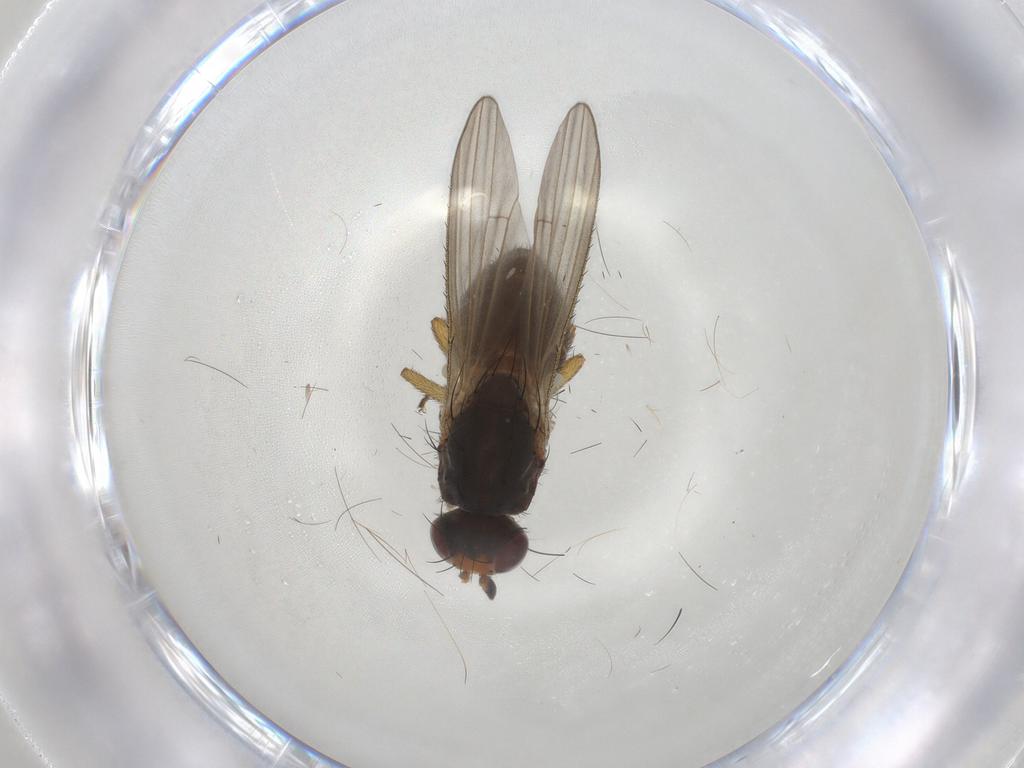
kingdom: Animalia
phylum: Arthropoda
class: Insecta
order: Diptera
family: Heleomyzidae
